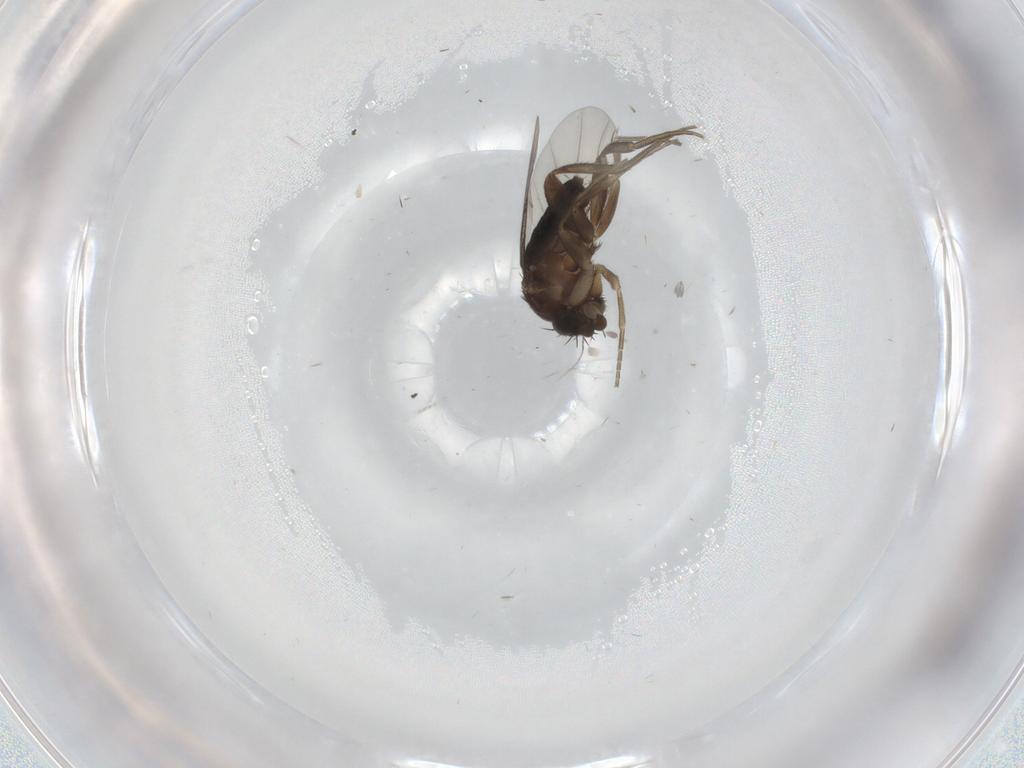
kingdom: Animalia
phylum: Arthropoda
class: Insecta
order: Diptera
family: Phoridae
